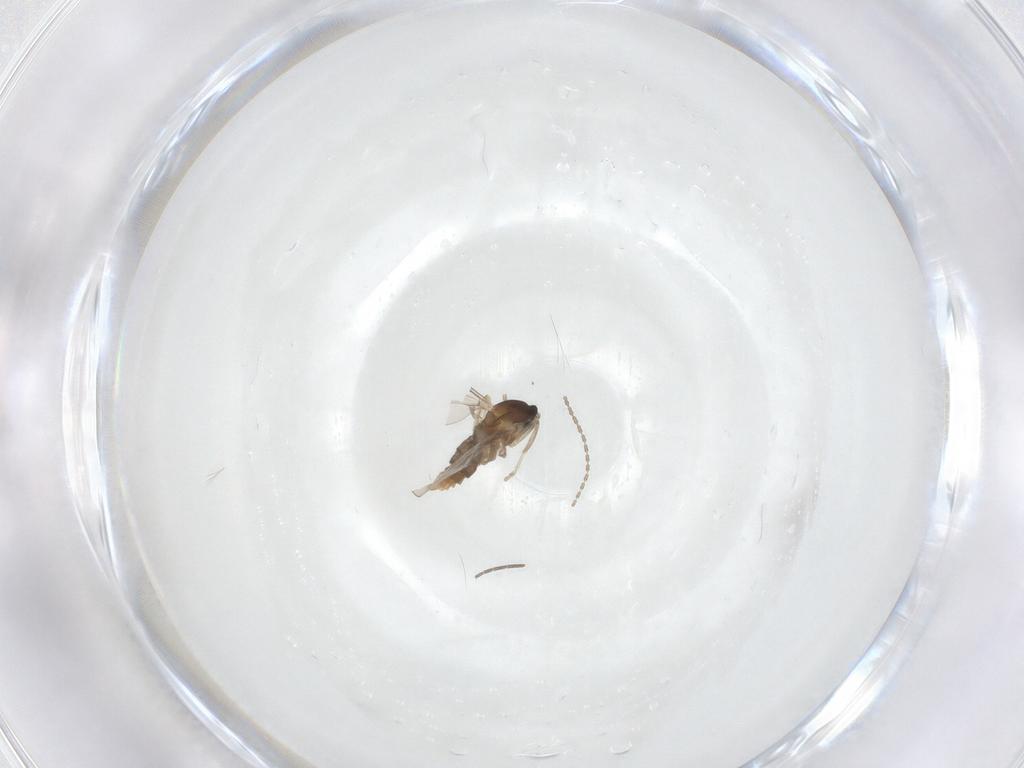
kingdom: Animalia
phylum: Arthropoda
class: Insecta
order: Diptera
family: Cecidomyiidae
